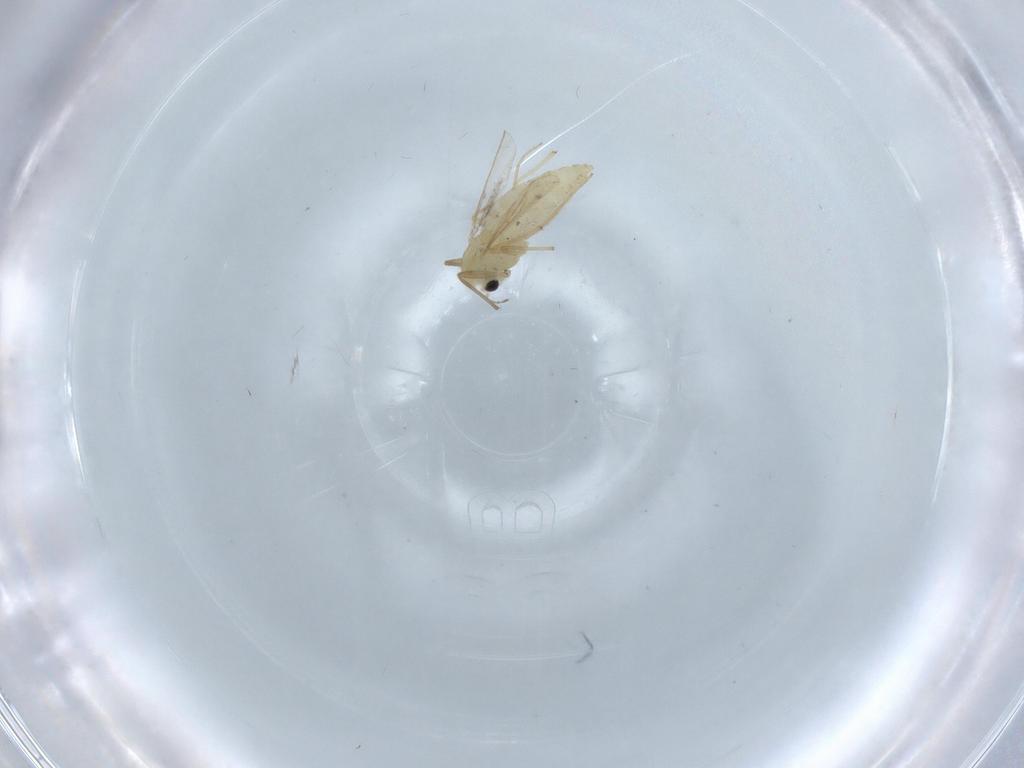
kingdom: Animalia
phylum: Arthropoda
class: Insecta
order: Diptera
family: Chironomidae
